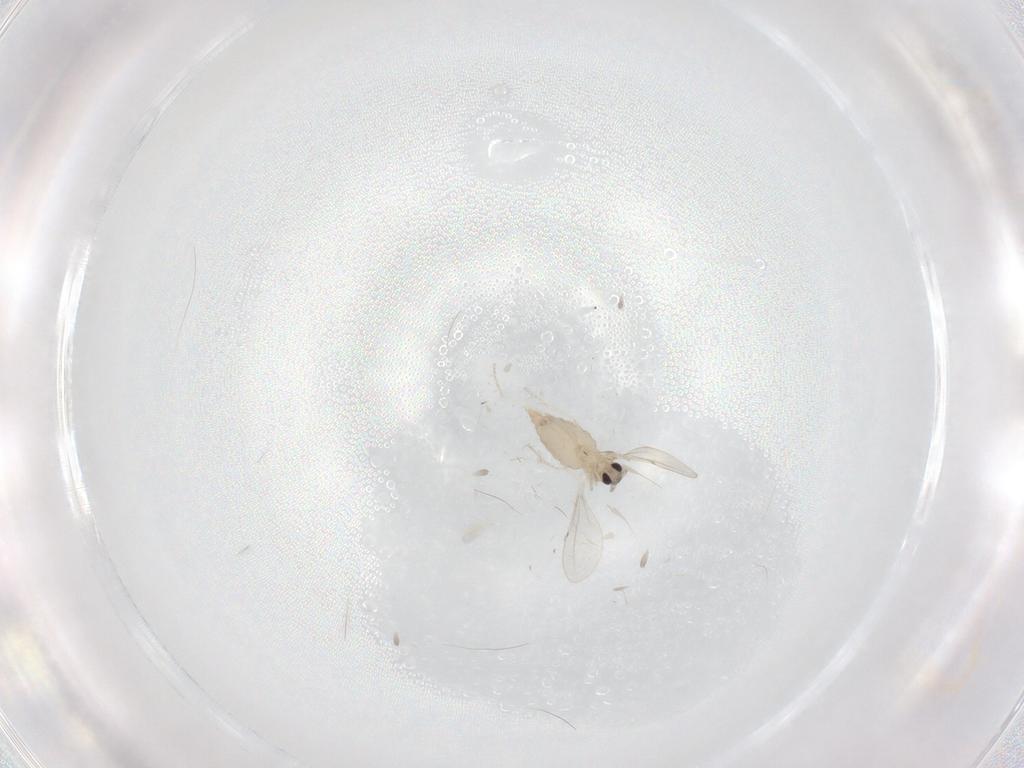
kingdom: Animalia
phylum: Arthropoda
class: Insecta
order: Diptera
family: Cecidomyiidae
